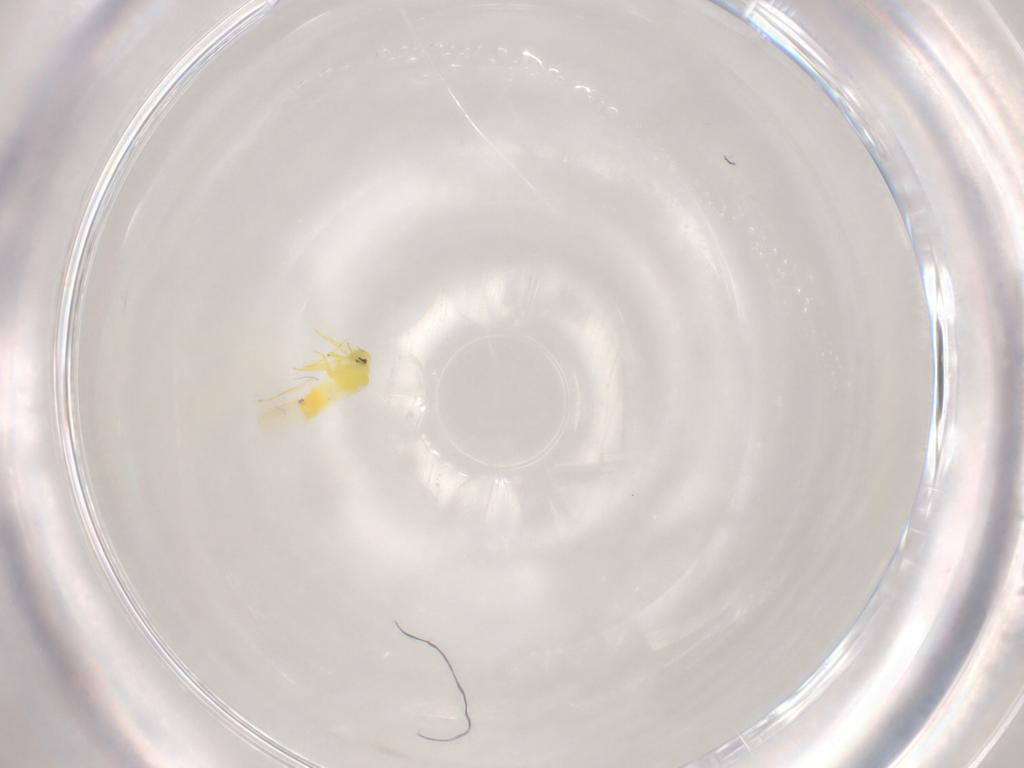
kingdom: Animalia
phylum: Arthropoda
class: Insecta
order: Hemiptera
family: Aleyrodidae
